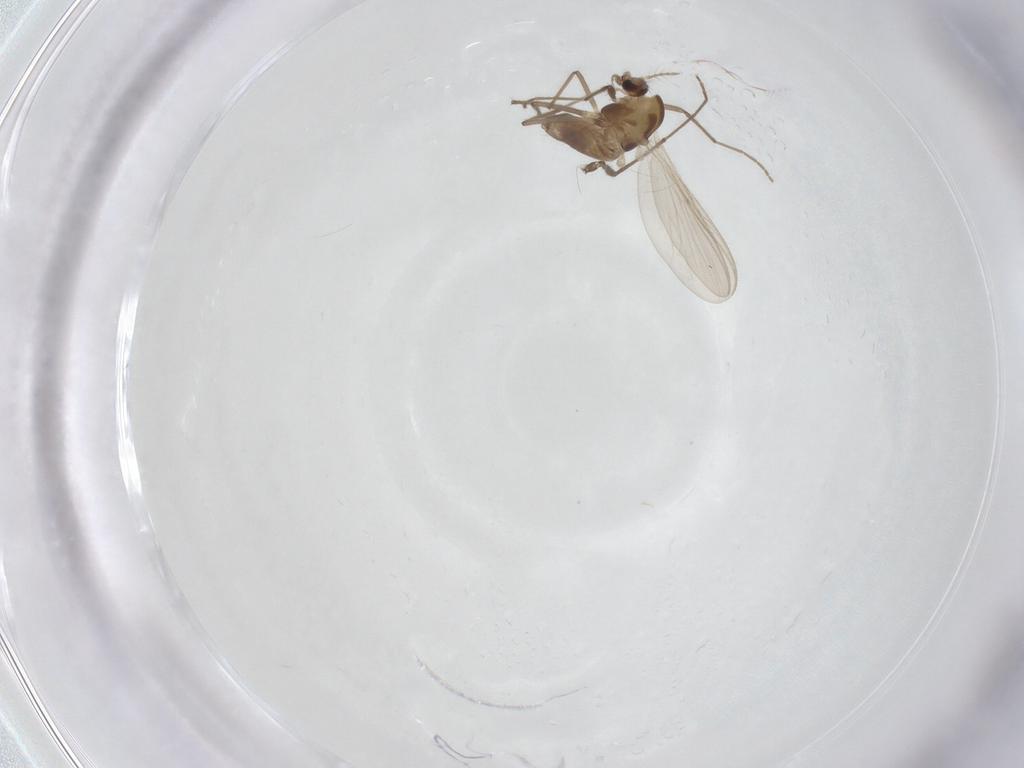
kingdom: Animalia
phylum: Arthropoda
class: Insecta
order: Diptera
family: Chironomidae
